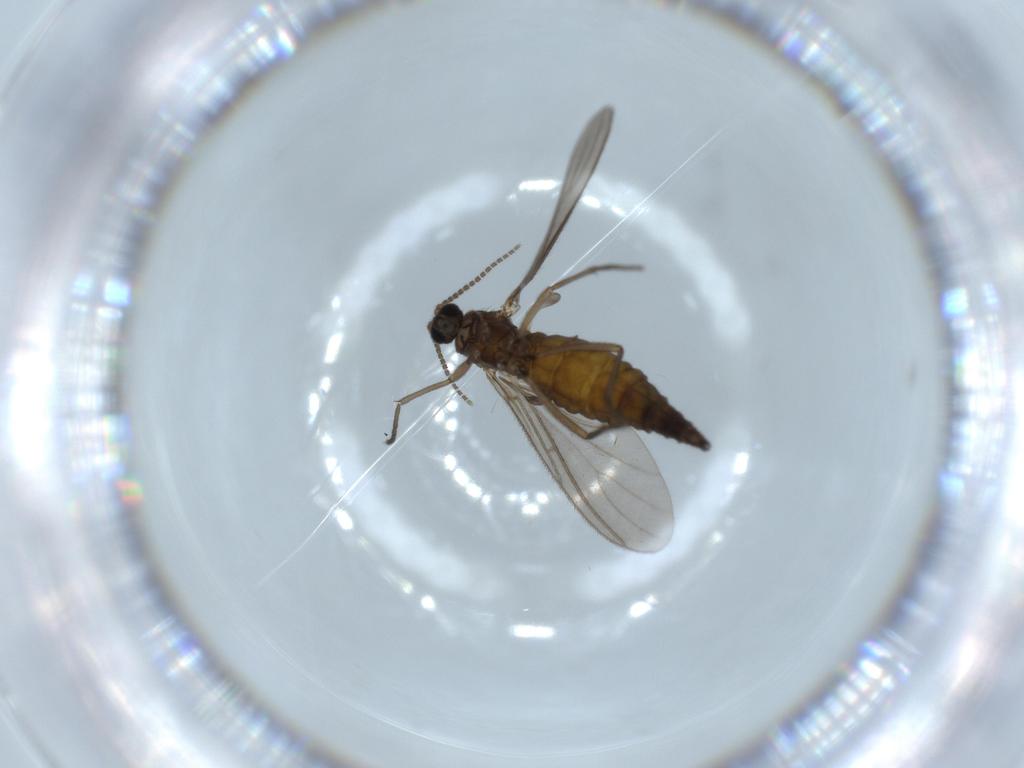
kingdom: Animalia
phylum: Arthropoda
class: Insecta
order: Diptera
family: Sciaridae
